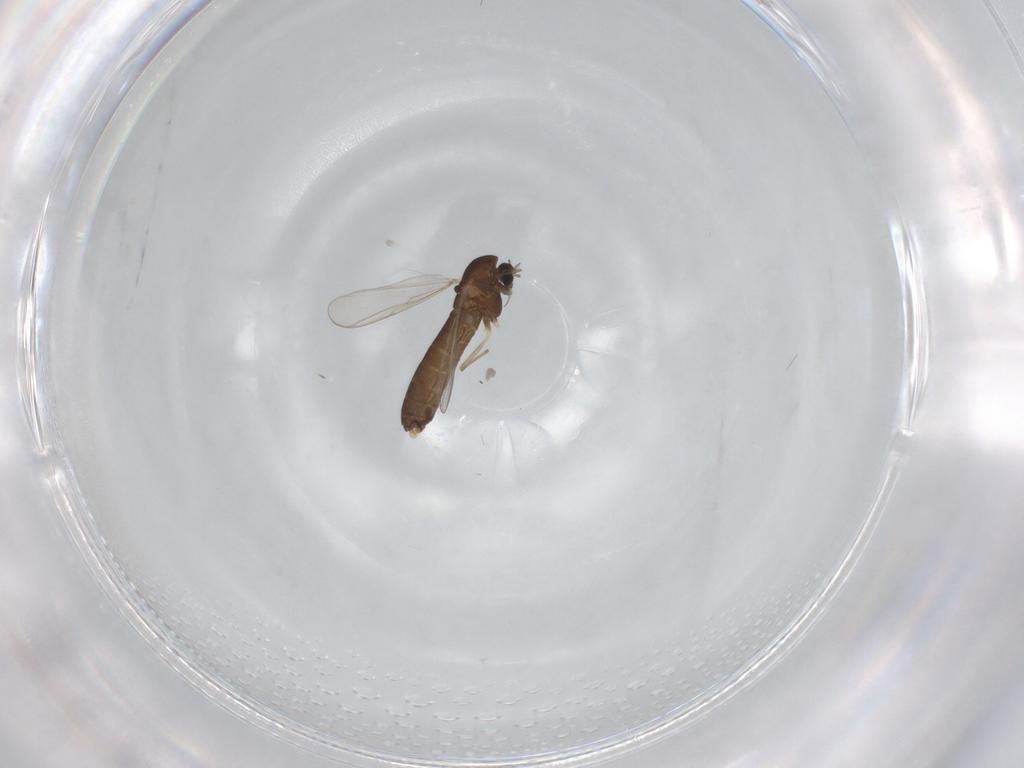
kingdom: Animalia
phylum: Arthropoda
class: Insecta
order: Diptera
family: Chironomidae
